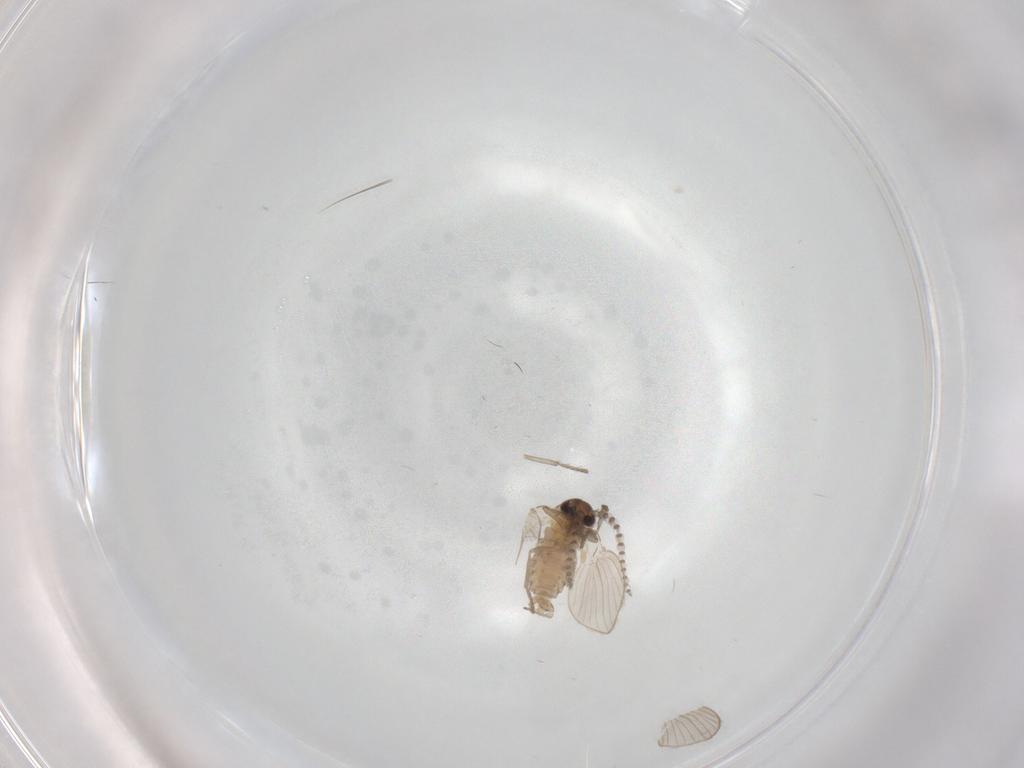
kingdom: Animalia
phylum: Arthropoda
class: Insecta
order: Diptera
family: Psychodidae
